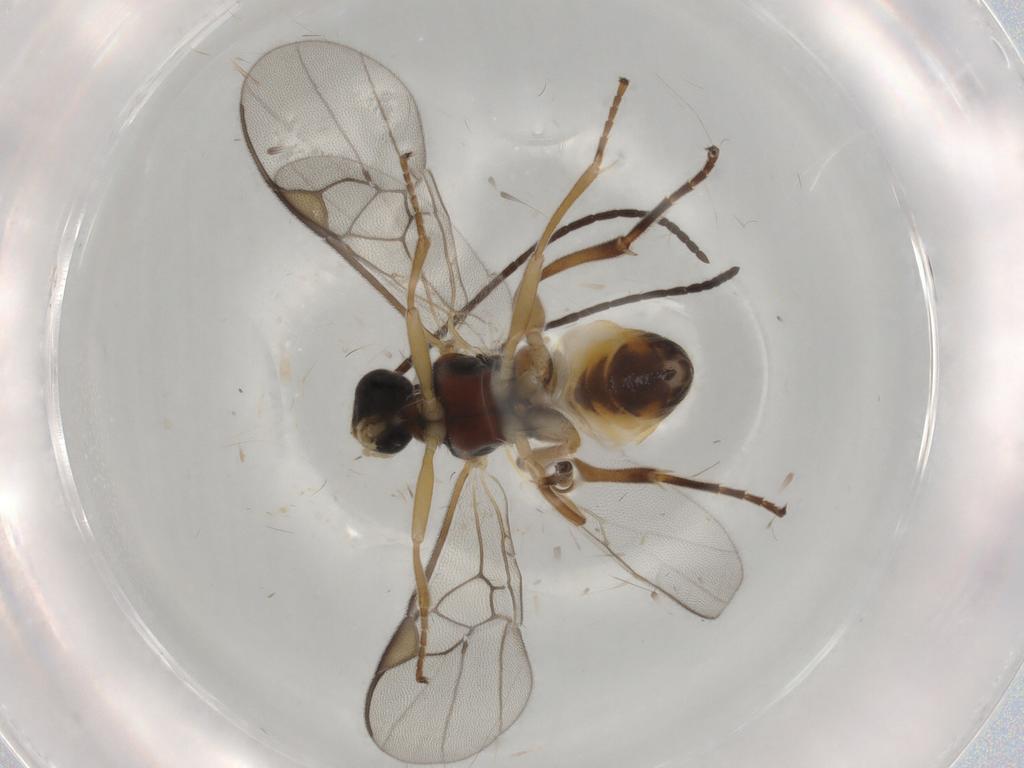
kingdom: Animalia
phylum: Arthropoda
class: Insecta
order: Hymenoptera
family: Braconidae
